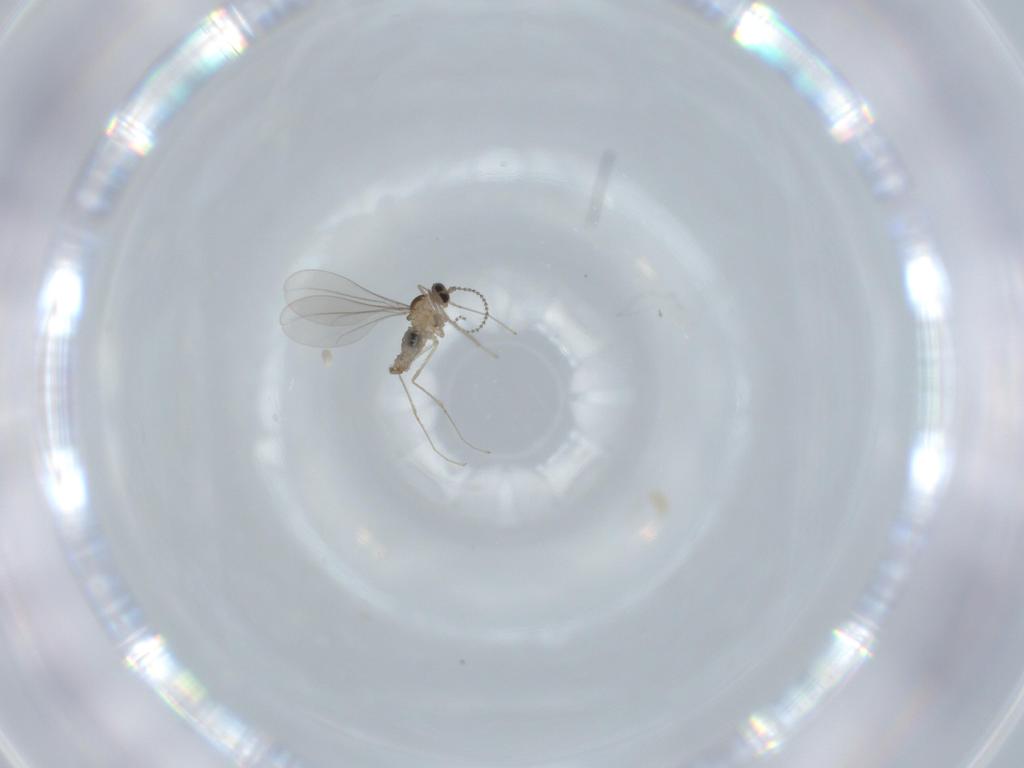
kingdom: Animalia
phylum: Arthropoda
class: Insecta
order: Diptera
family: Cecidomyiidae
